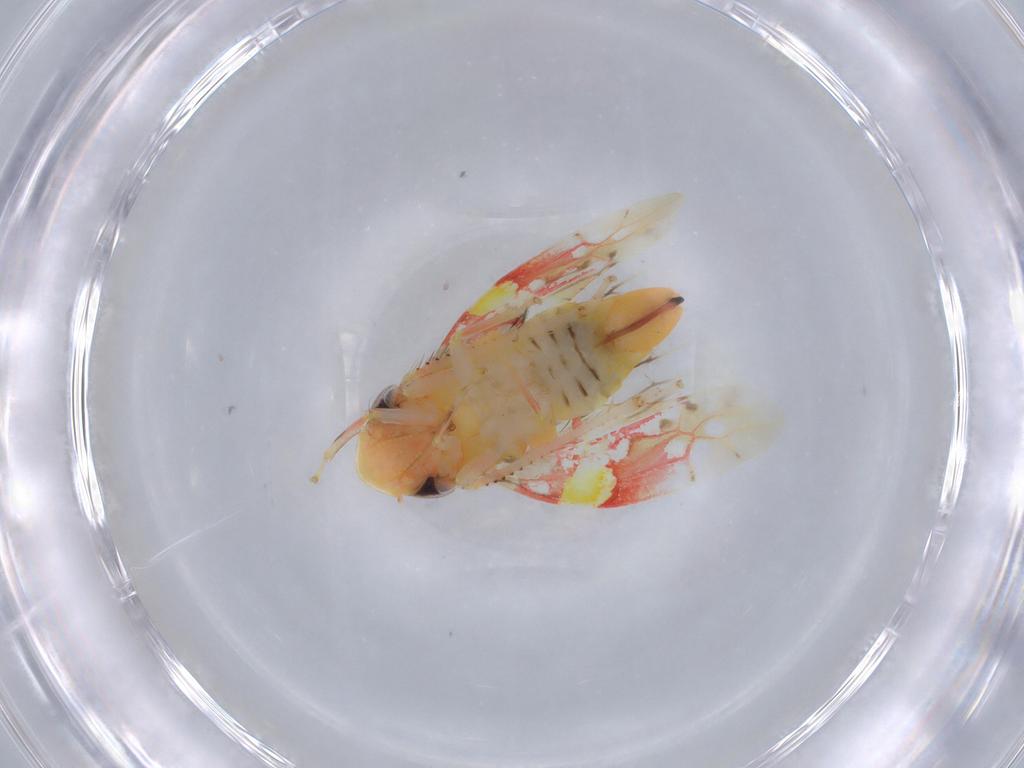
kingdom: Animalia
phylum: Arthropoda
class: Insecta
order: Hemiptera
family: Cicadellidae
